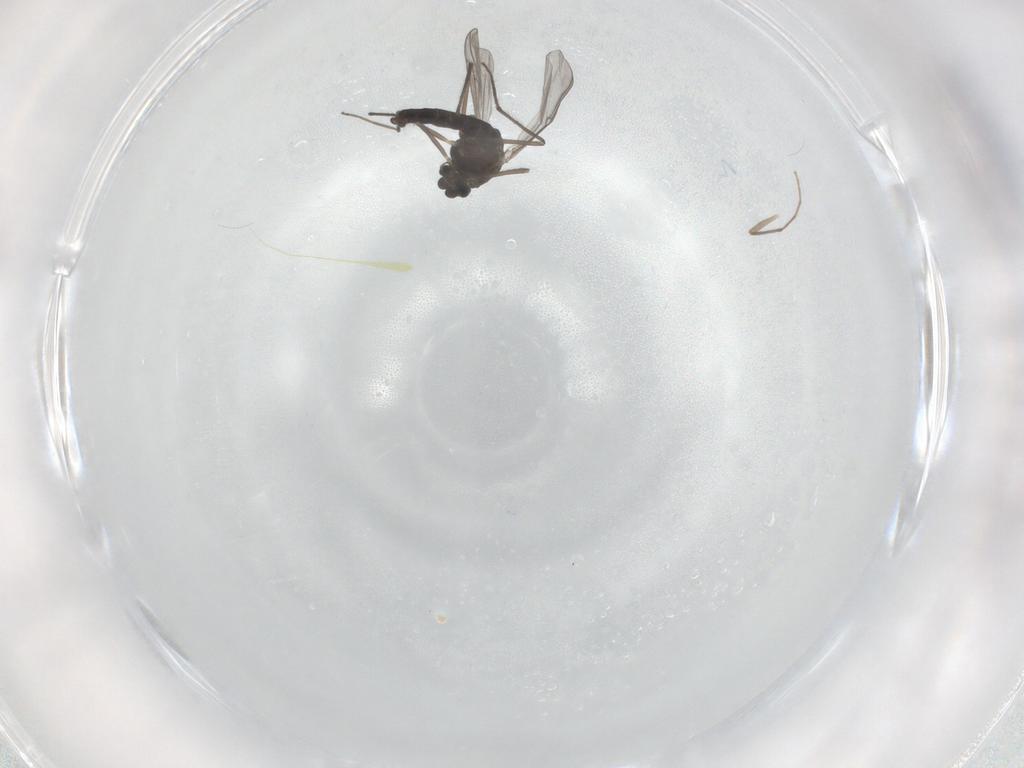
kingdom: Animalia
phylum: Arthropoda
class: Insecta
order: Diptera
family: Chironomidae
